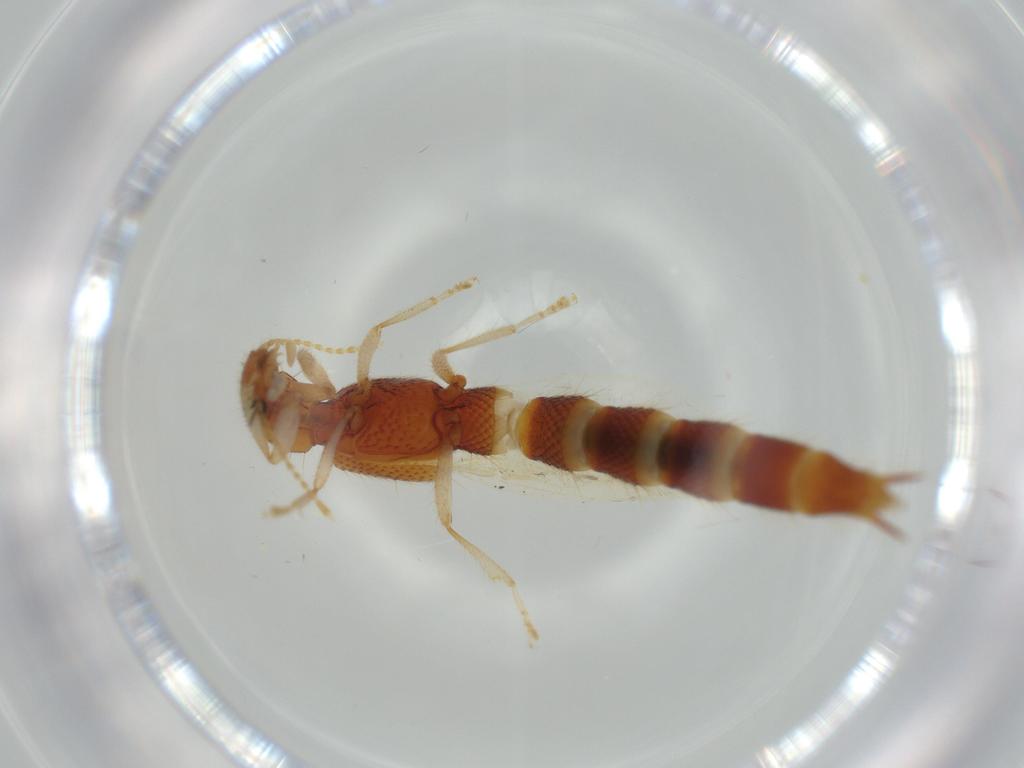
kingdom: Animalia
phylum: Arthropoda
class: Insecta
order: Coleoptera
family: Staphylinidae
